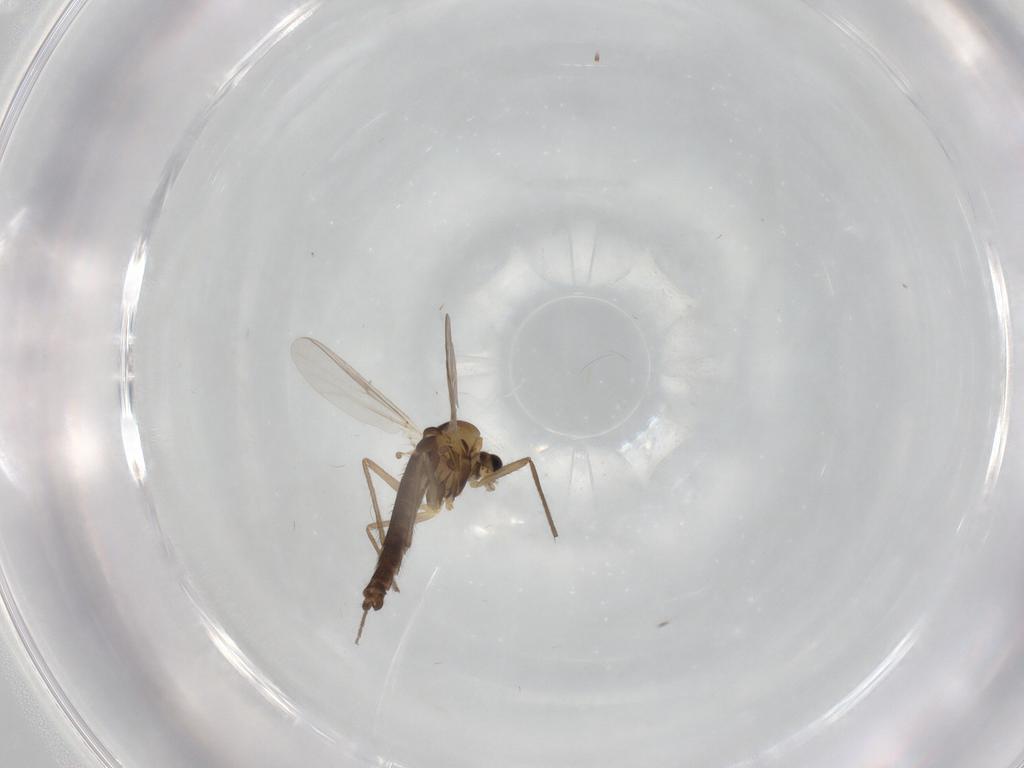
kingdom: Animalia
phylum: Arthropoda
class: Insecta
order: Diptera
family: Chironomidae
